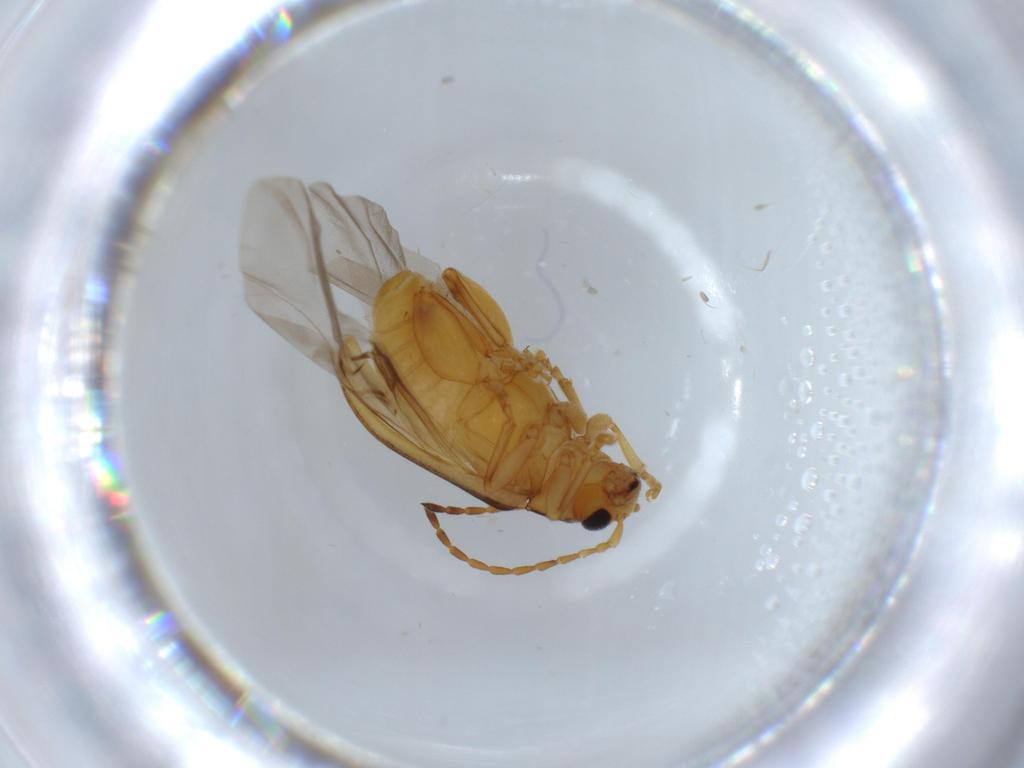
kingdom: Animalia
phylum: Arthropoda
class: Insecta
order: Coleoptera
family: Chrysomelidae
